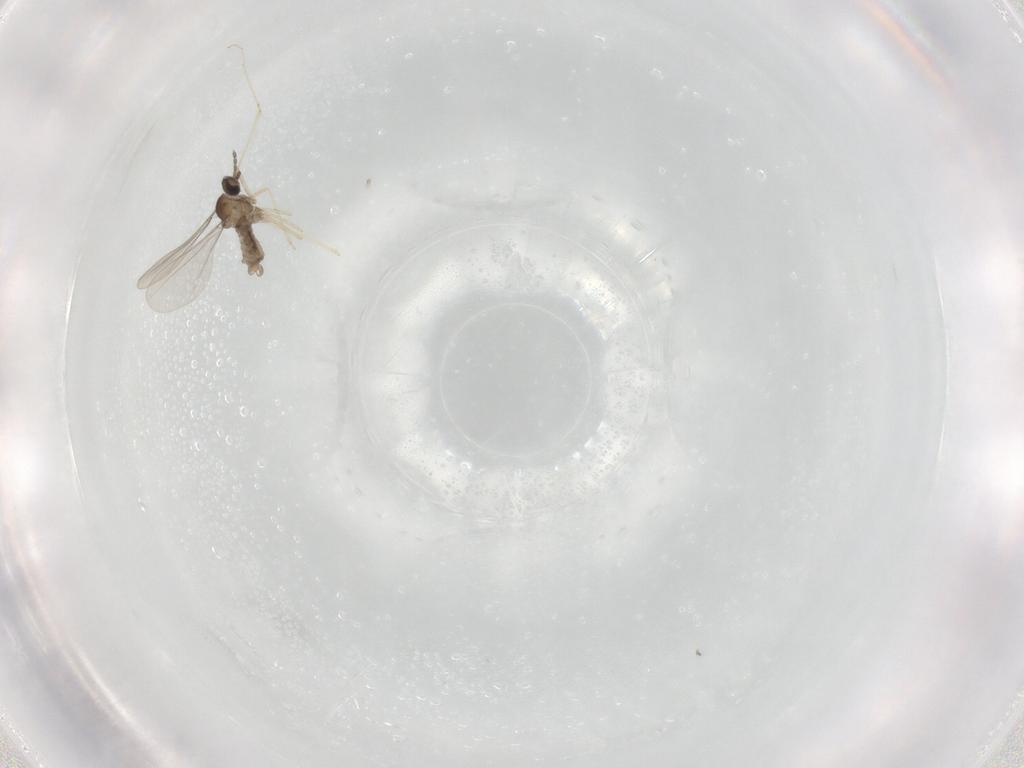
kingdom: Animalia
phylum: Arthropoda
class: Insecta
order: Diptera
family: Cecidomyiidae
